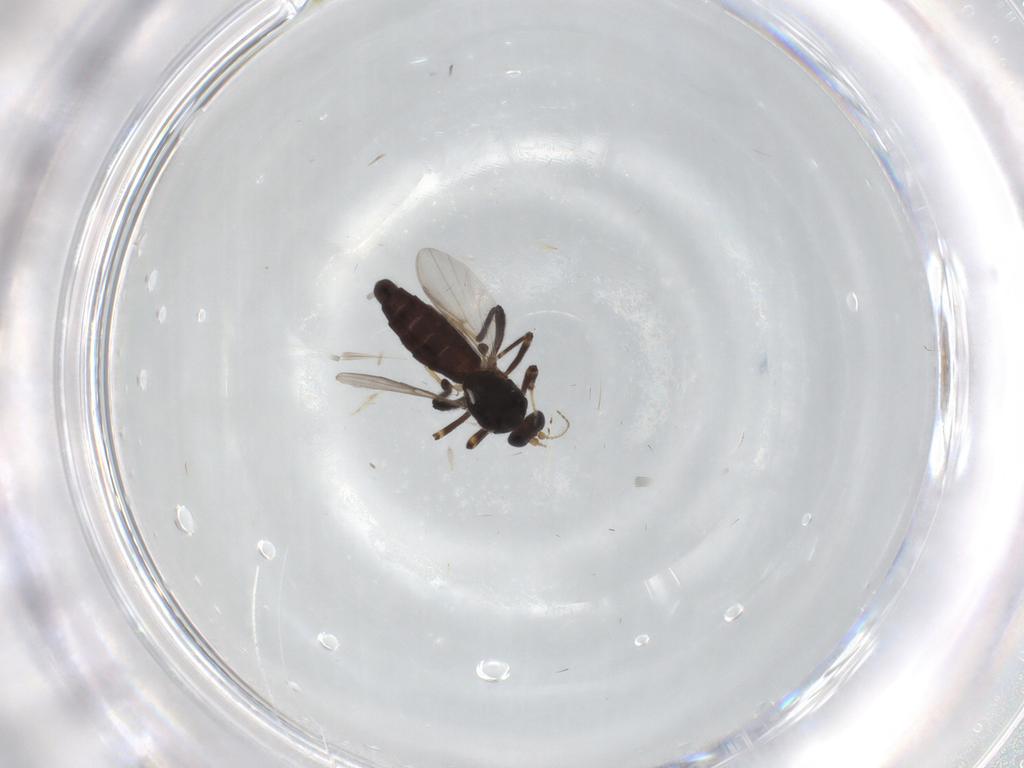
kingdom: Animalia
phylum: Arthropoda
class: Insecta
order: Diptera
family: Ceratopogonidae
